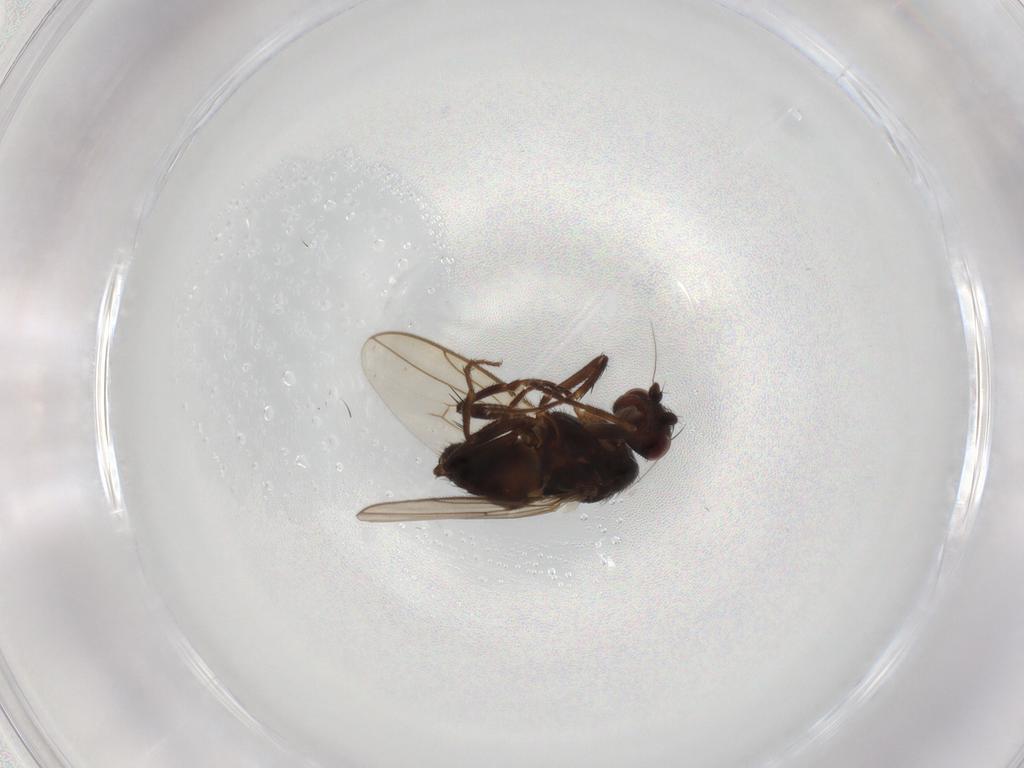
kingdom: Animalia
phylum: Arthropoda
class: Insecta
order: Diptera
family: Sphaeroceridae
